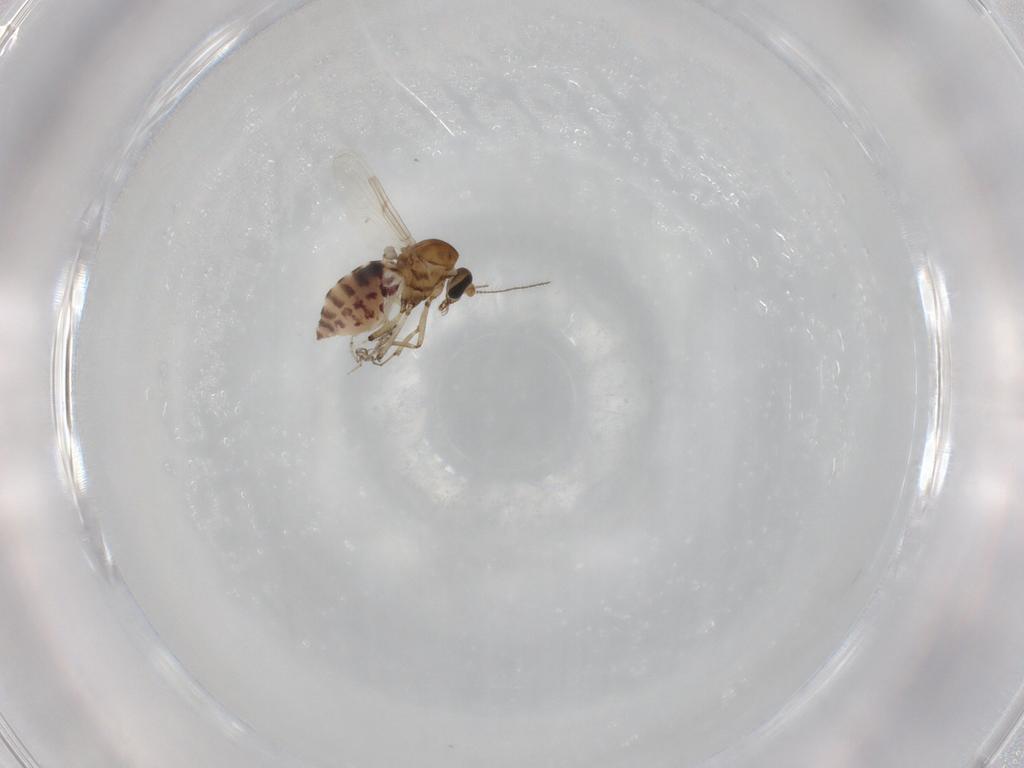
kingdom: Animalia
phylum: Arthropoda
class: Insecta
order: Diptera
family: Ceratopogonidae
